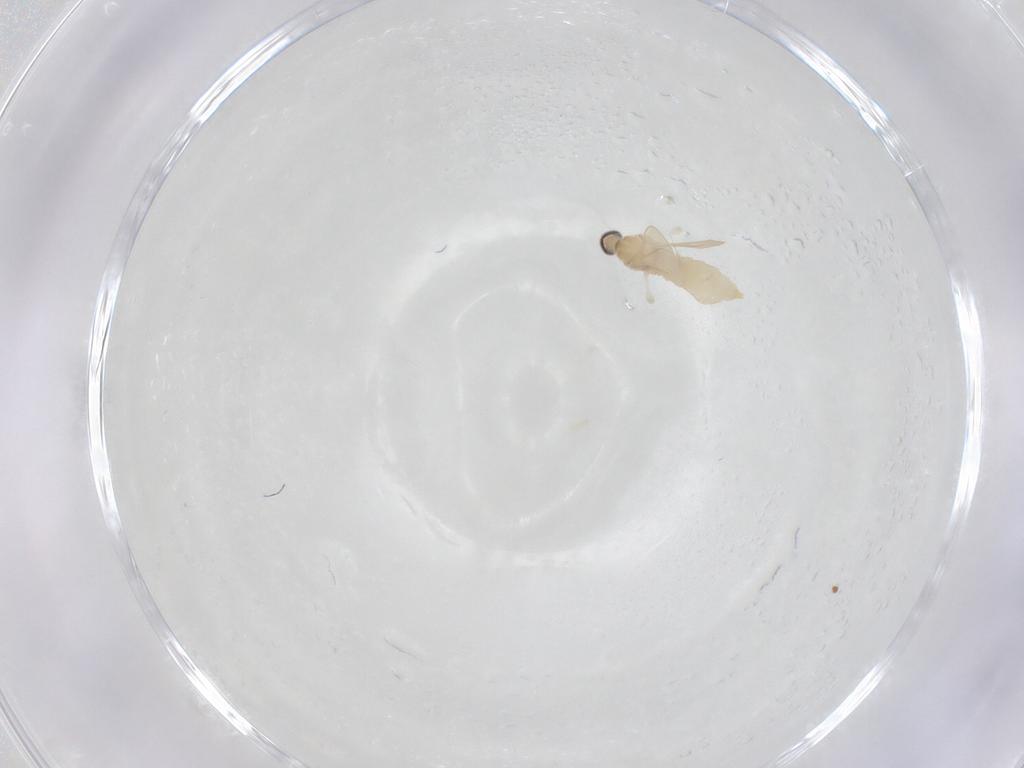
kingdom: Animalia
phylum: Arthropoda
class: Insecta
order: Diptera
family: Cecidomyiidae
